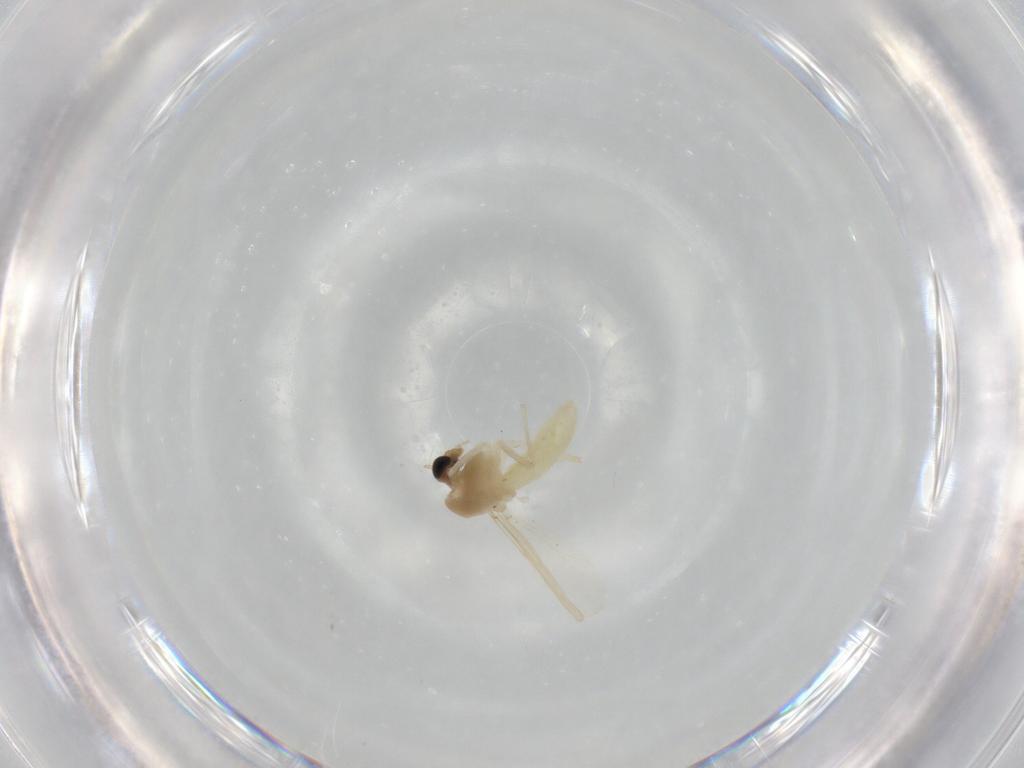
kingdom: Animalia
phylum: Arthropoda
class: Insecta
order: Diptera
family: Chironomidae
